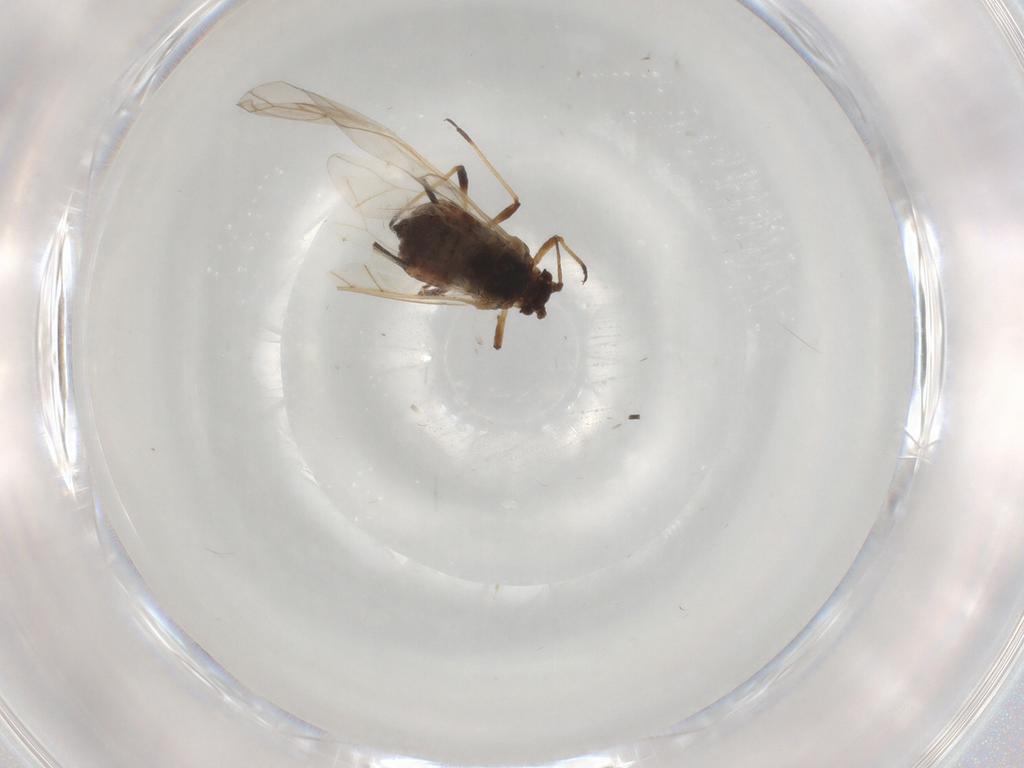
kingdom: Animalia
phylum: Arthropoda
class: Insecta
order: Hemiptera
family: Aphididae
